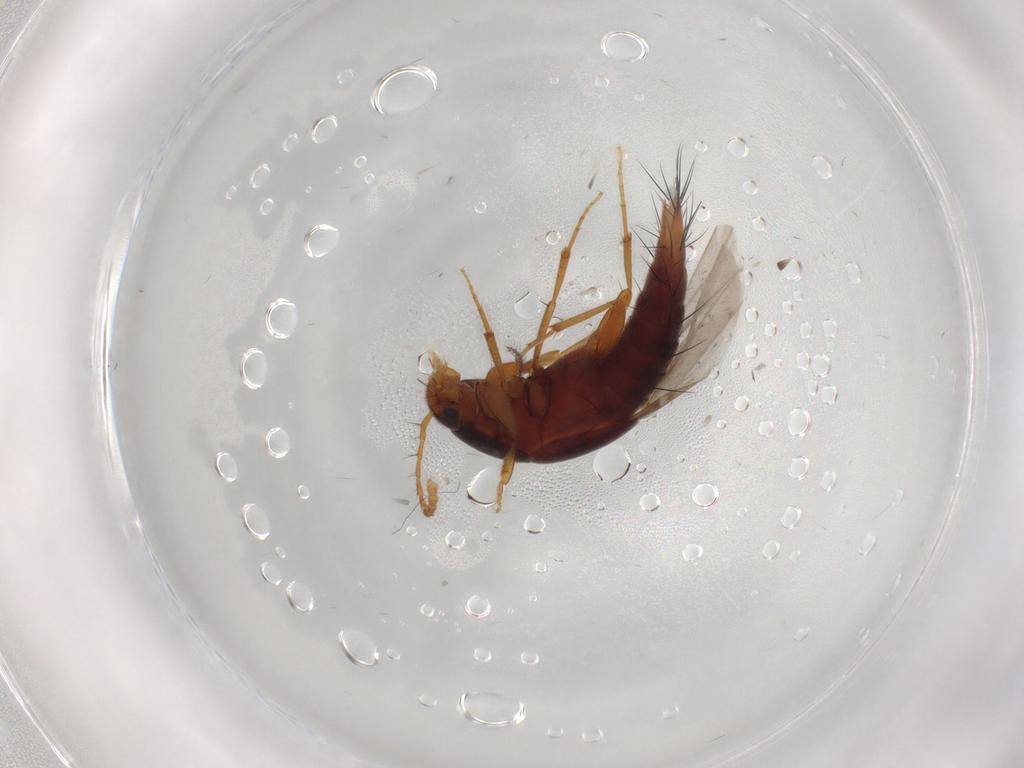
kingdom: Animalia
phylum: Arthropoda
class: Insecta
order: Coleoptera
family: Staphylinidae
